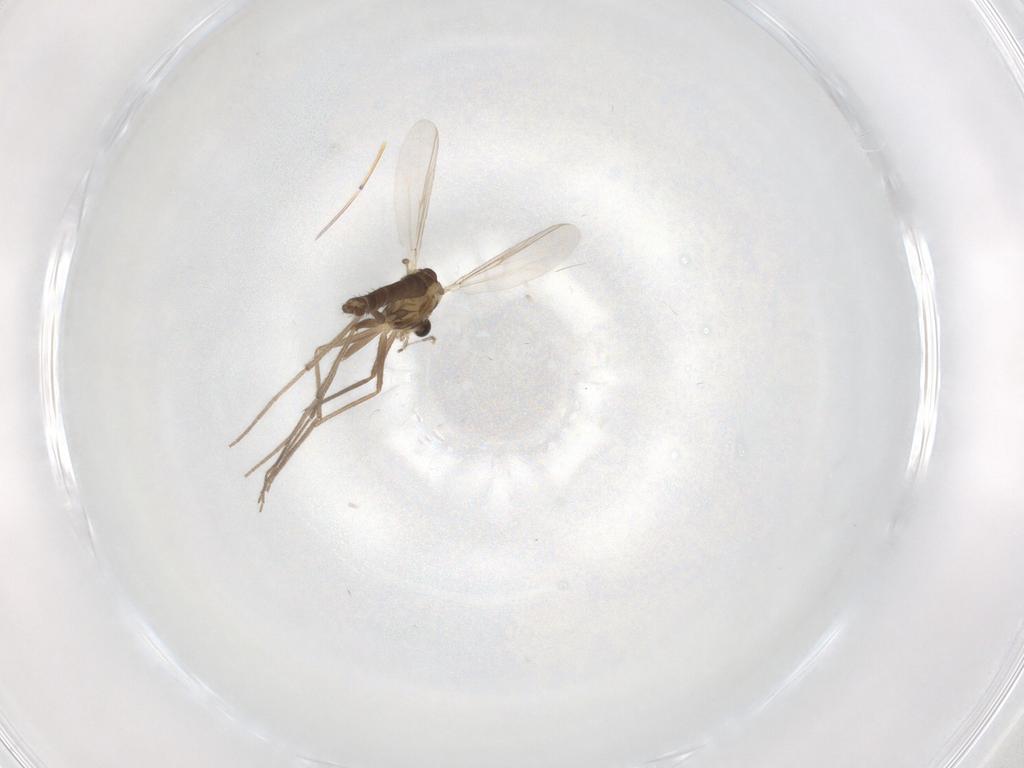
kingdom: Animalia
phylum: Arthropoda
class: Insecta
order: Diptera
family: Chironomidae
